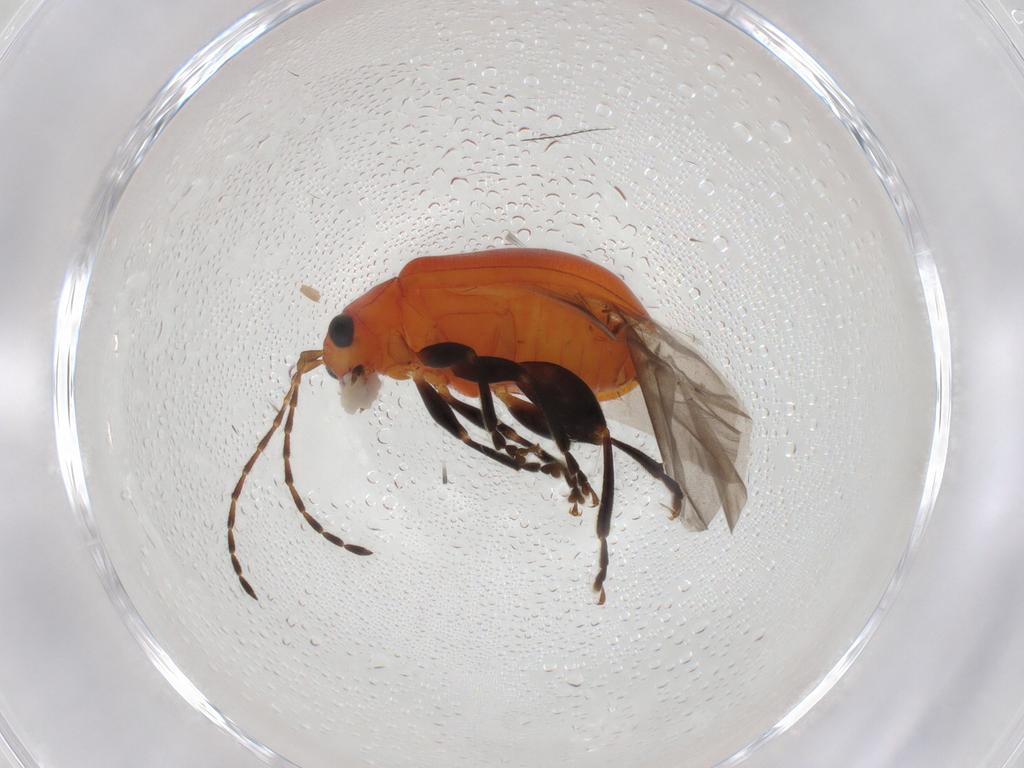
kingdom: Animalia
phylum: Arthropoda
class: Insecta
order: Coleoptera
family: Chrysomelidae
